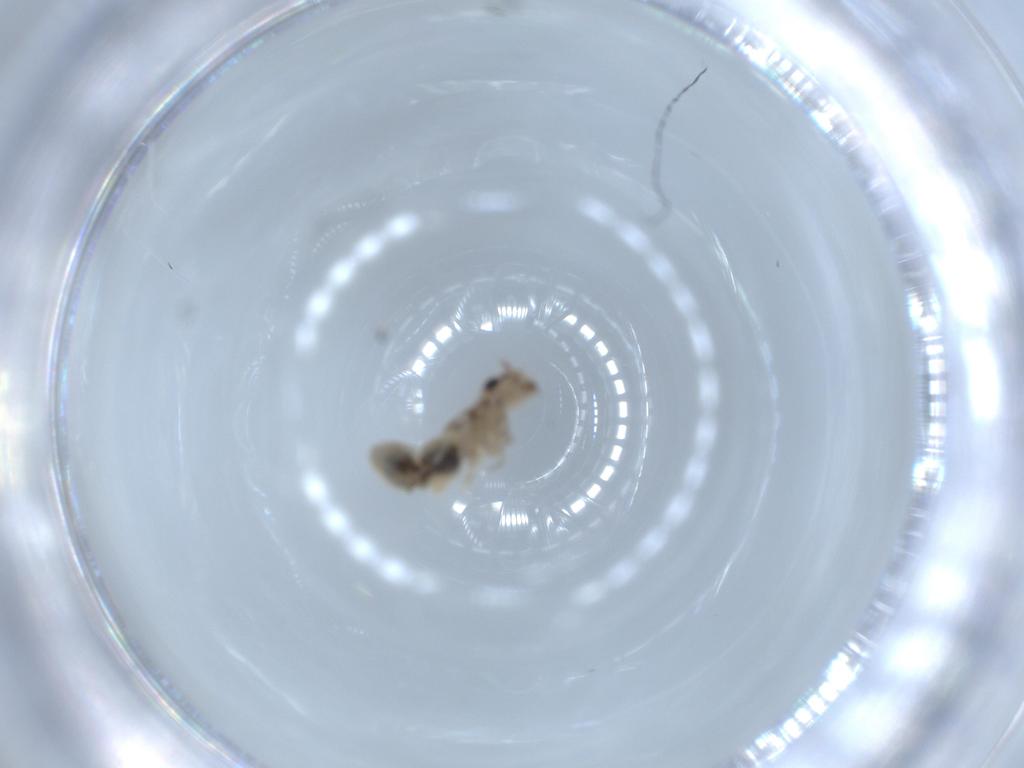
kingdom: Animalia
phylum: Arthropoda
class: Insecta
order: Psocodea
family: Lepidopsocidae
